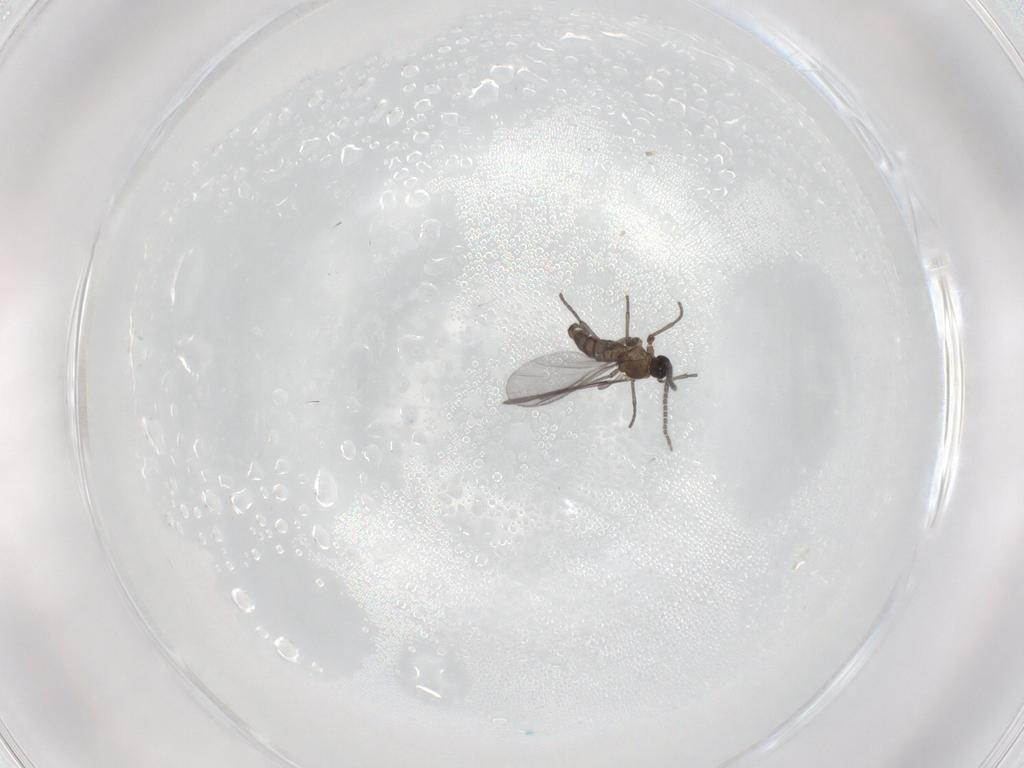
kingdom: Animalia
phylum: Arthropoda
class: Insecta
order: Diptera
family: Sciaridae
